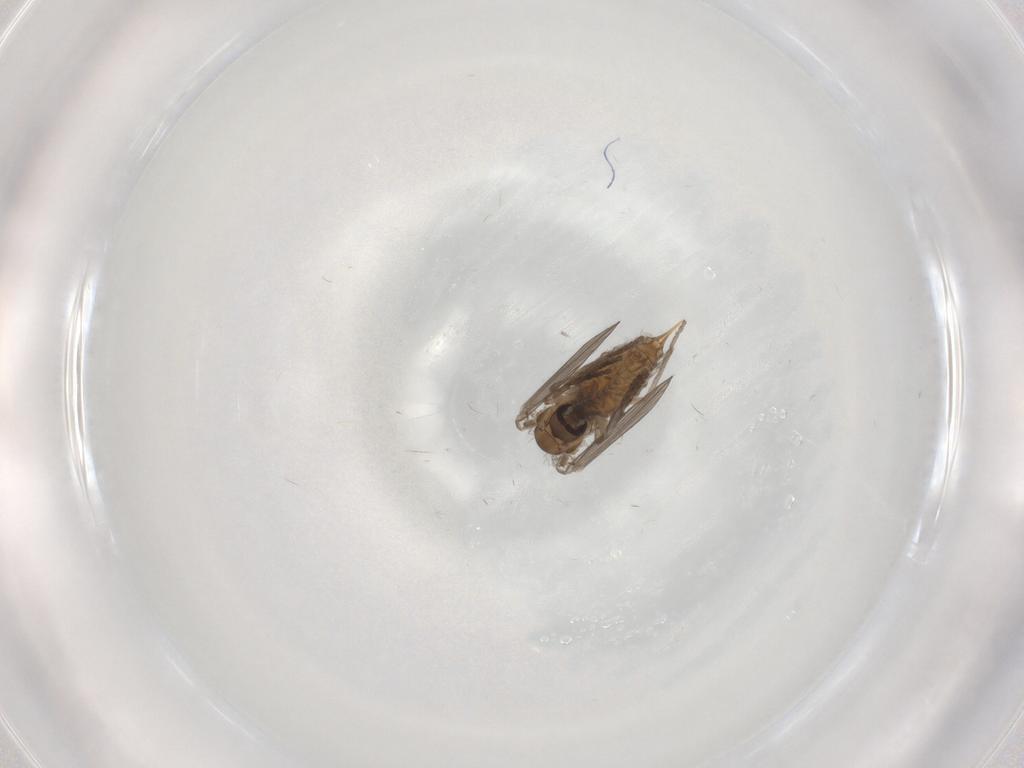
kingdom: Animalia
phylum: Arthropoda
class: Insecta
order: Diptera
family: Psychodidae
